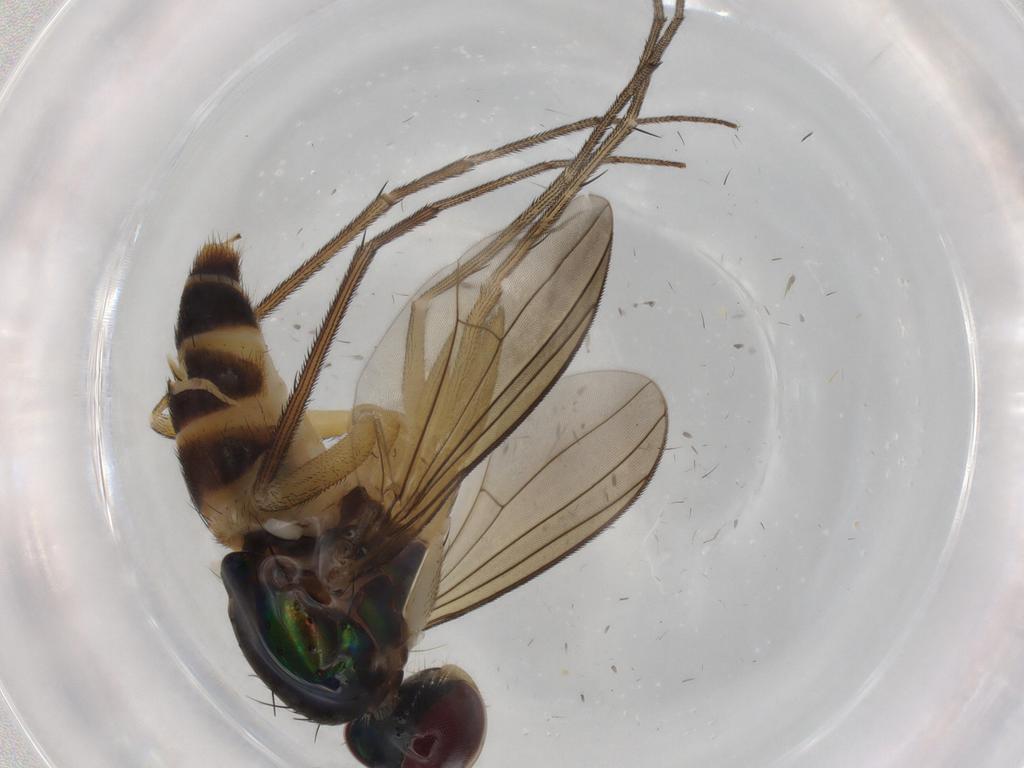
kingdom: Animalia
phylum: Arthropoda
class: Insecta
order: Diptera
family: Dolichopodidae
